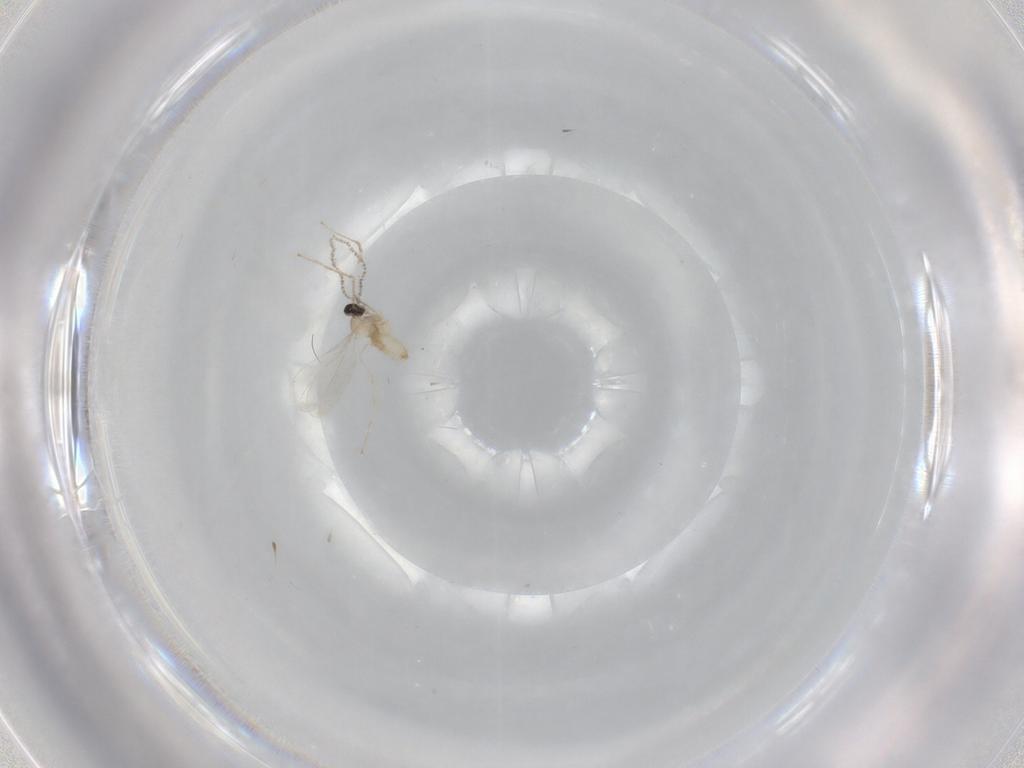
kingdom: Animalia
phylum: Arthropoda
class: Insecta
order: Diptera
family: Cecidomyiidae
